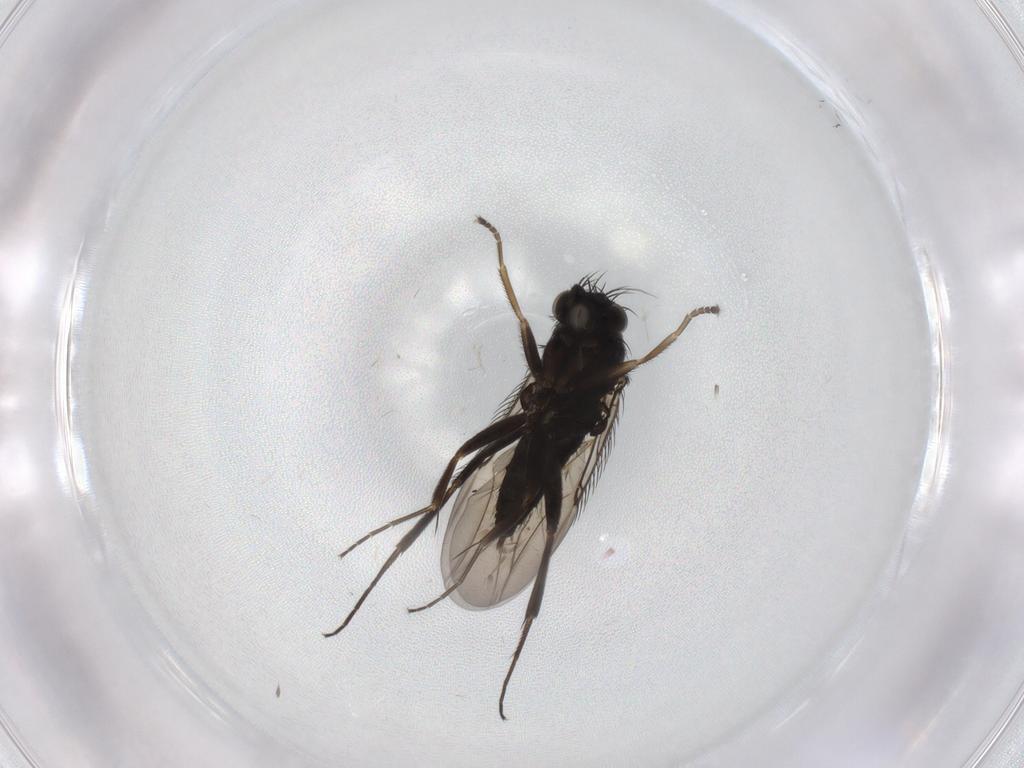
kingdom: Animalia
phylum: Arthropoda
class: Insecta
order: Diptera
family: Phoridae
